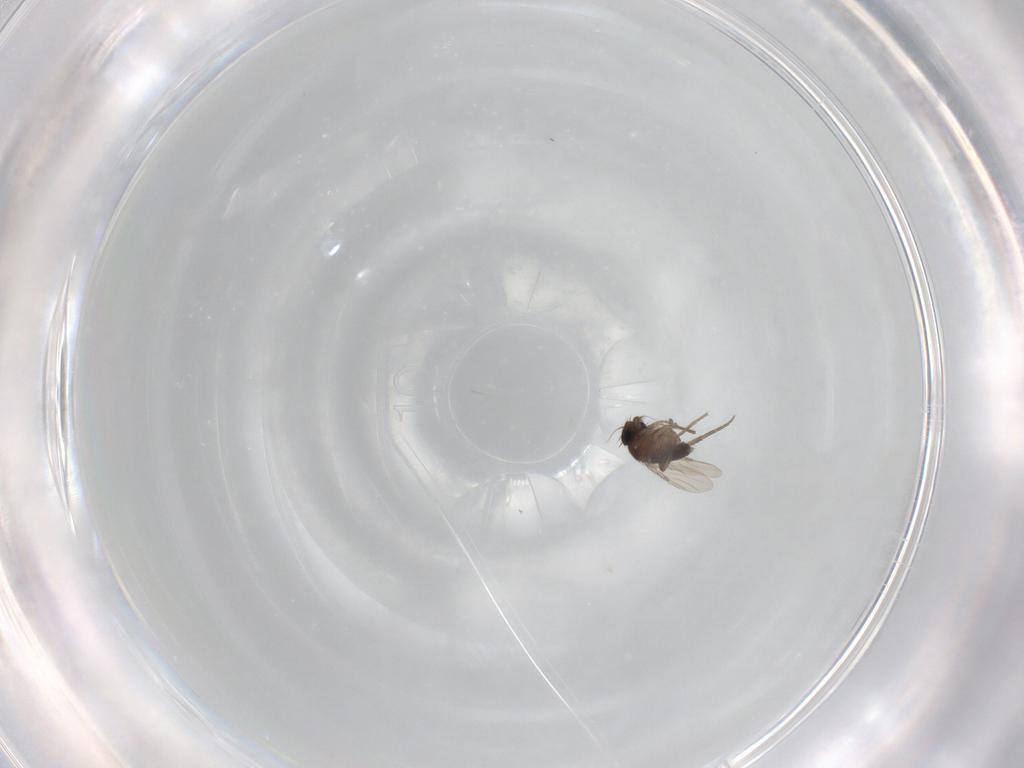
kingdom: Animalia
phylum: Arthropoda
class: Insecta
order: Diptera
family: Phoridae
